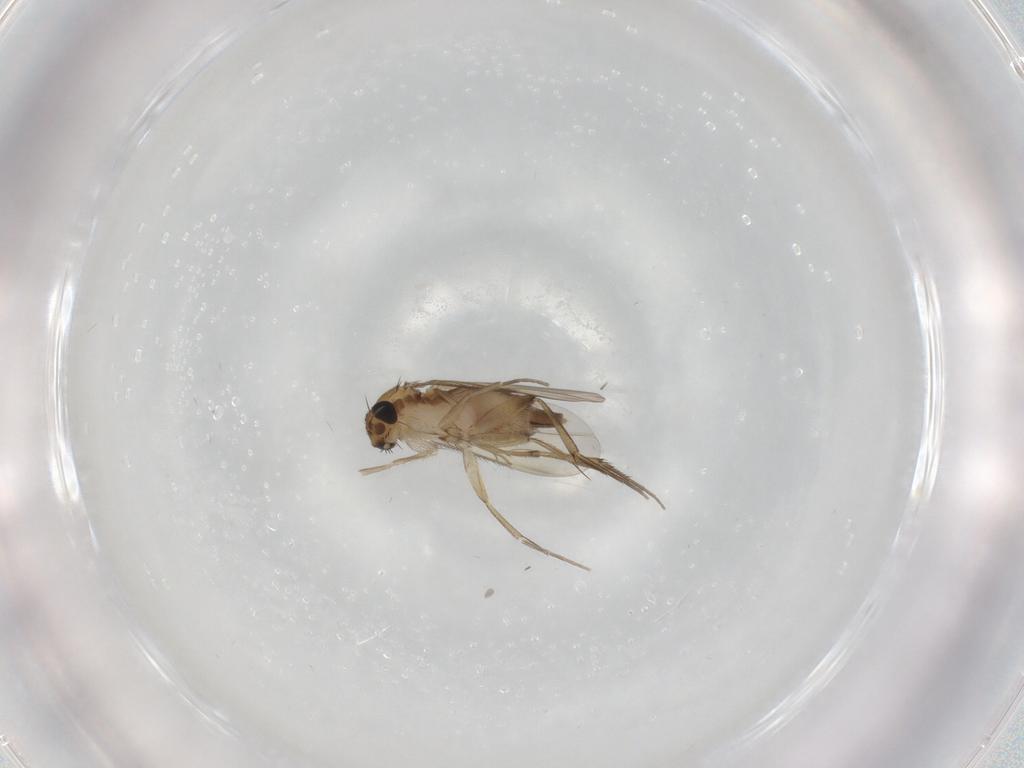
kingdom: Animalia
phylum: Arthropoda
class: Insecta
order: Diptera
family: Phoridae
